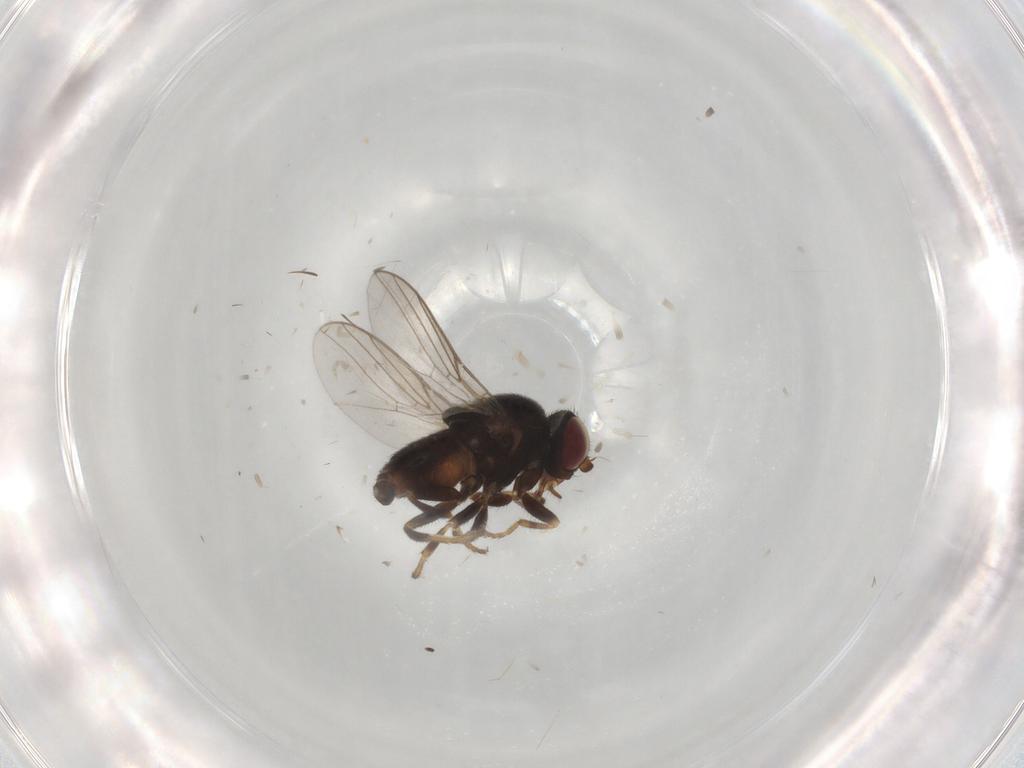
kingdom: Animalia
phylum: Arthropoda
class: Insecta
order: Diptera
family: Chloropidae
